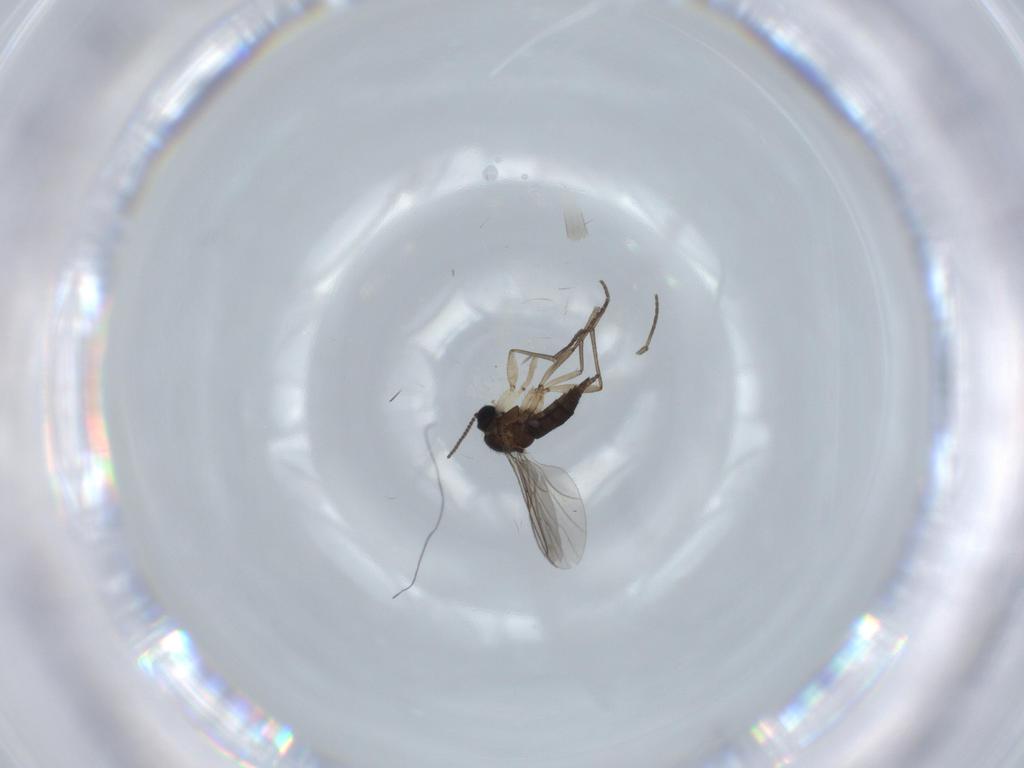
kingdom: Animalia
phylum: Arthropoda
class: Insecta
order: Diptera
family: Sciaridae
